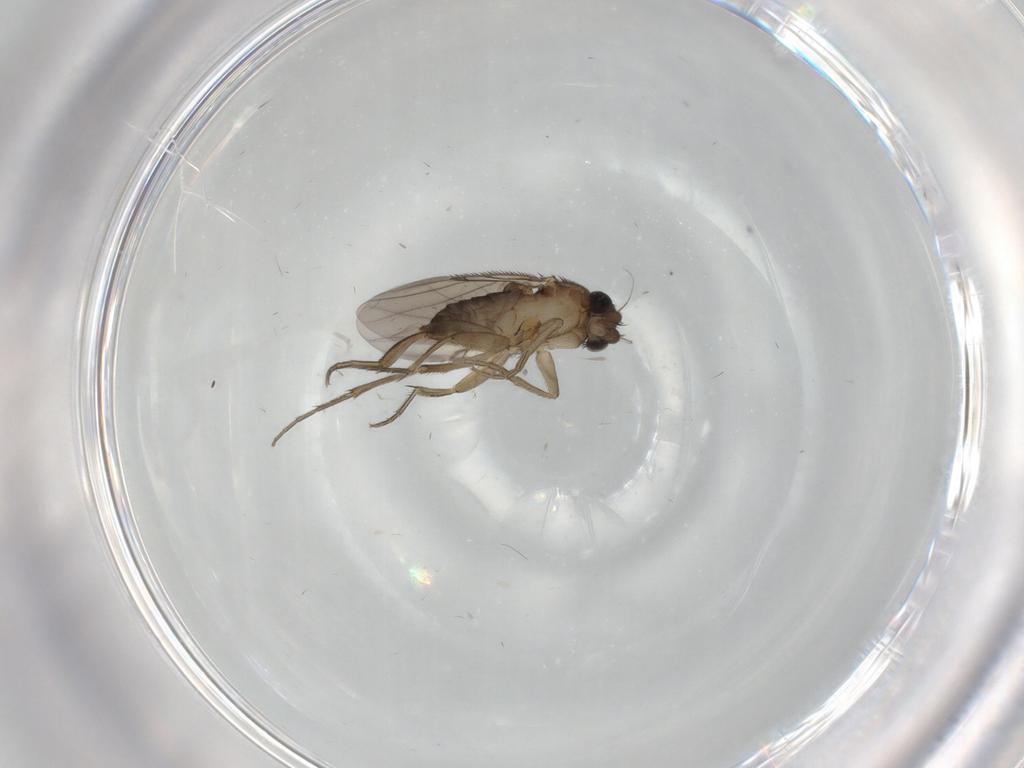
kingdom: Animalia
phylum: Arthropoda
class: Insecta
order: Diptera
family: Phoridae
